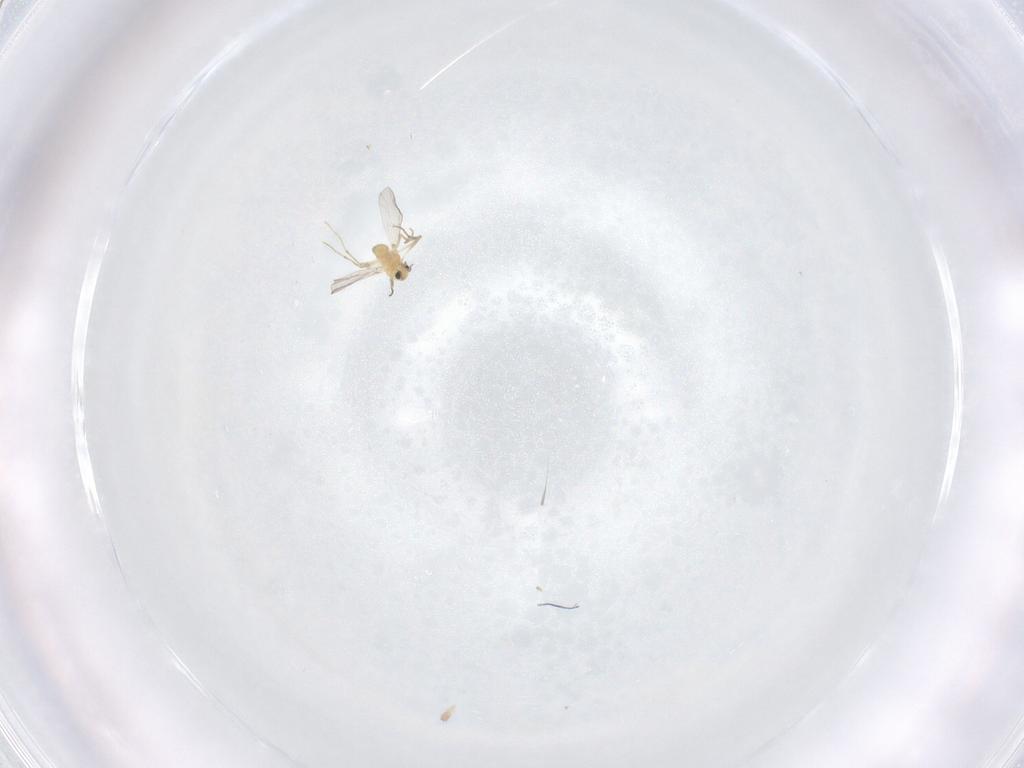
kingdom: Animalia
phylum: Arthropoda
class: Insecta
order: Diptera
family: Chironomidae
